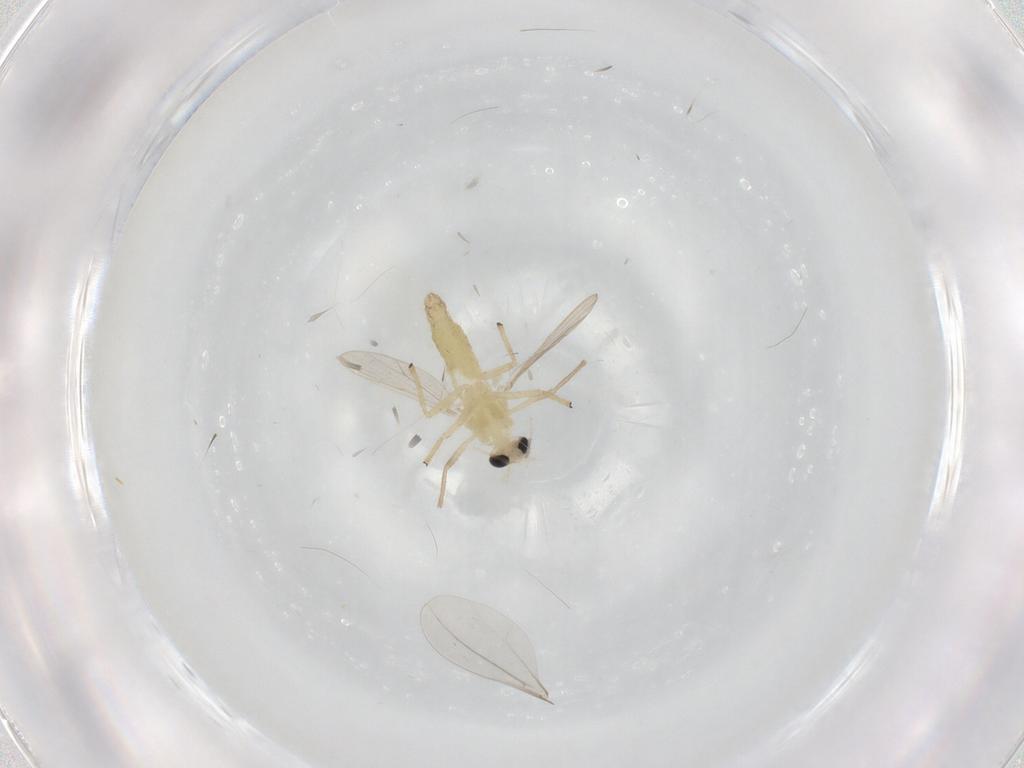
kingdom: Animalia
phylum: Arthropoda
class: Insecta
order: Diptera
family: Chironomidae
